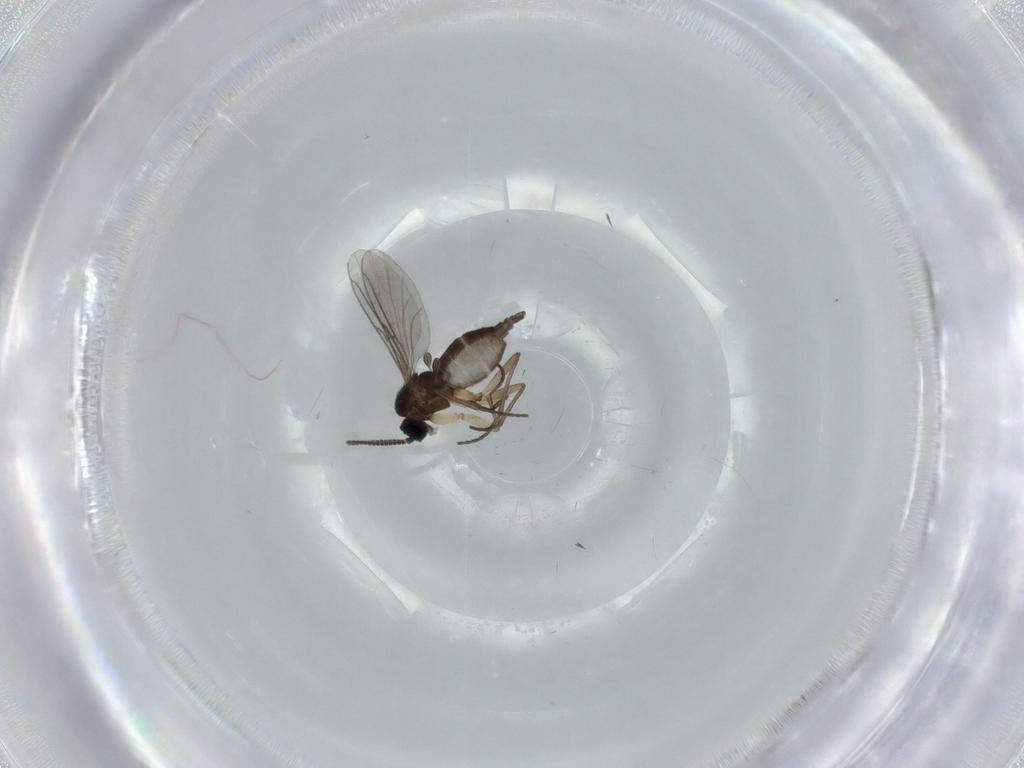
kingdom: Animalia
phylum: Arthropoda
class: Insecta
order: Diptera
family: Sciaridae
